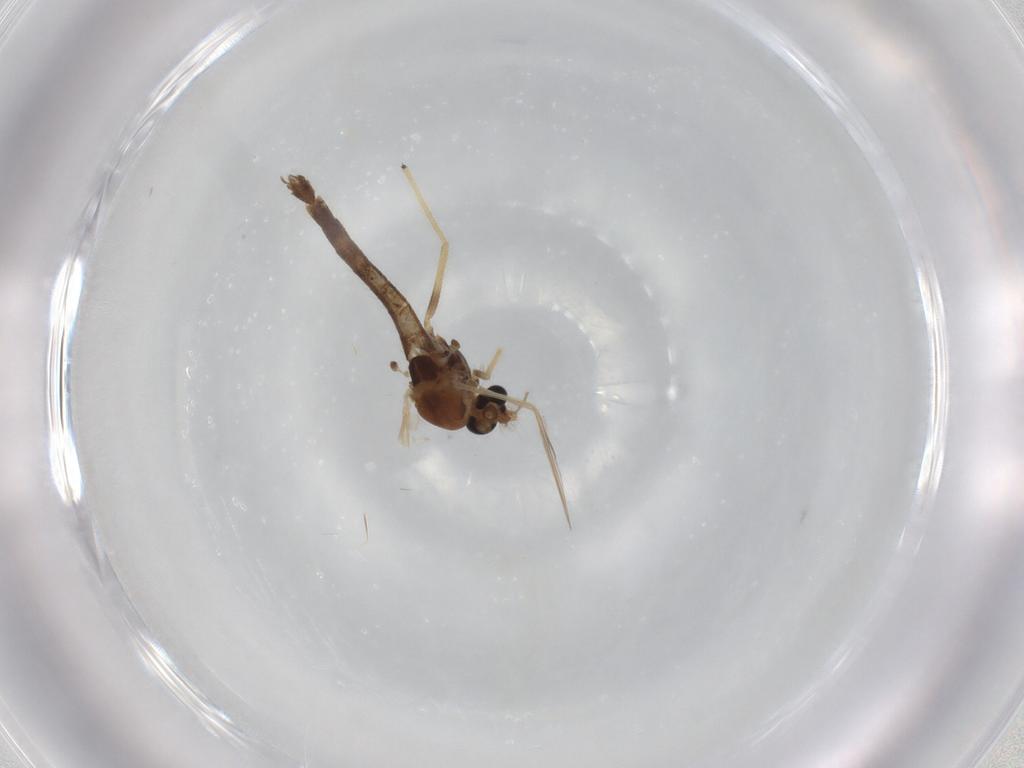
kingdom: Animalia
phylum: Arthropoda
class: Insecta
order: Diptera
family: Chironomidae
